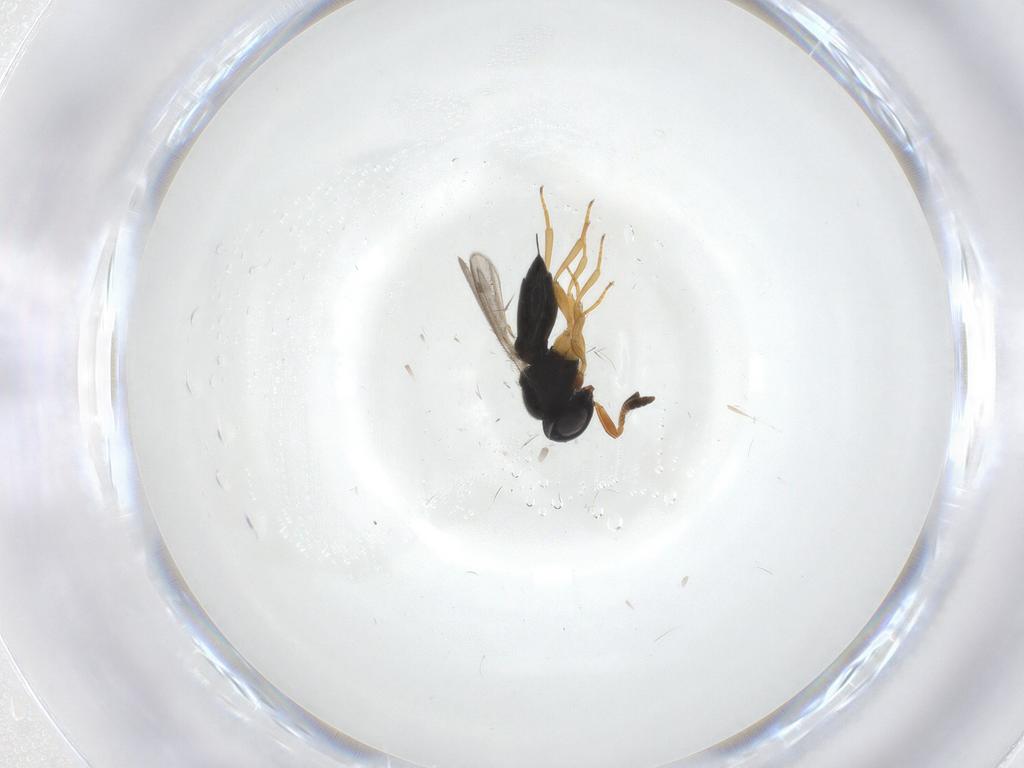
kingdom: Animalia
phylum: Arthropoda
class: Insecta
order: Hymenoptera
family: Scelionidae
